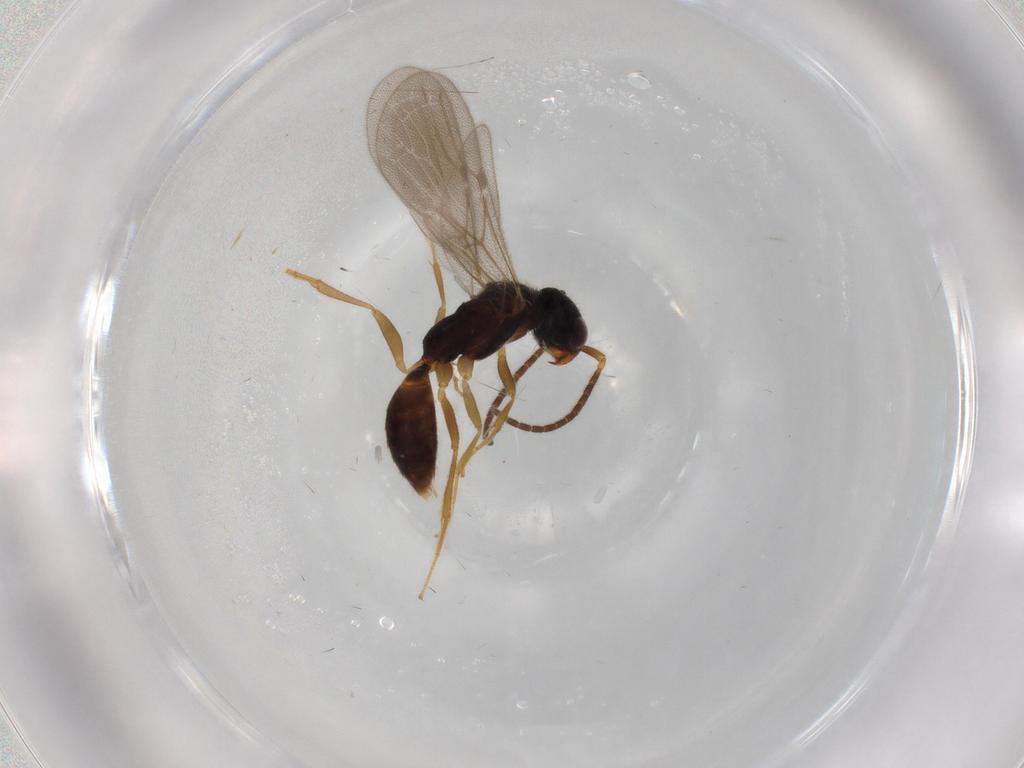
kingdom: Animalia
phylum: Arthropoda
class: Insecta
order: Hymenoptera
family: Bethylidae
